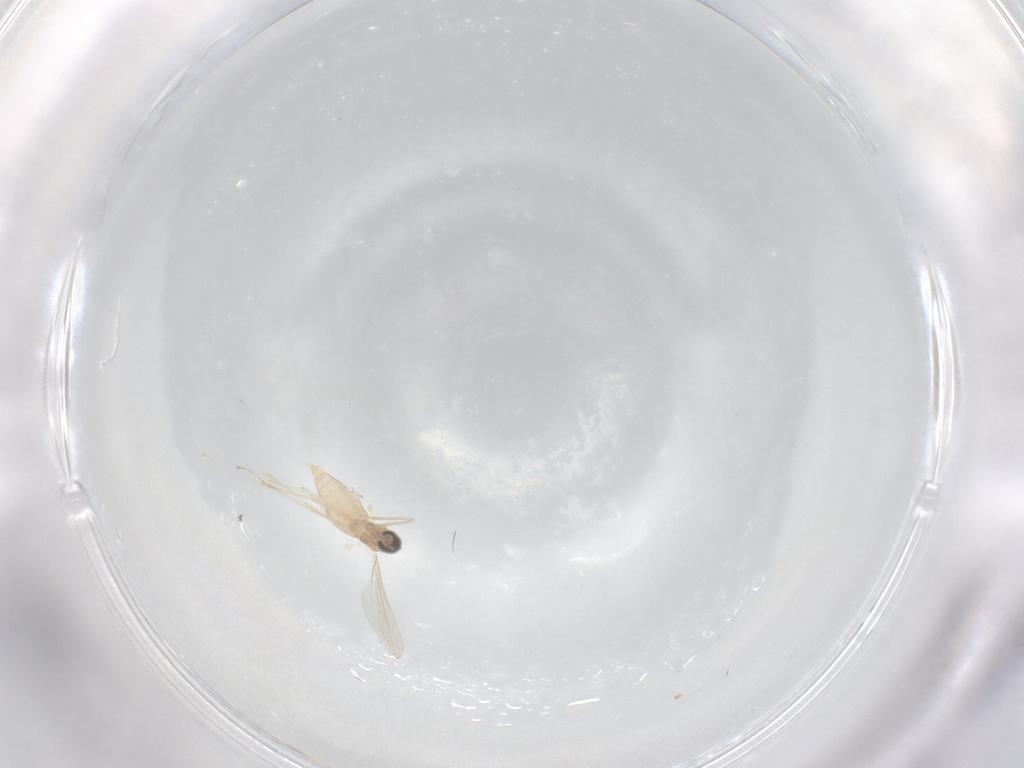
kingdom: Animalia
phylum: Arthropoda
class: Insecta
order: Diptera
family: Cecidomyiidae
